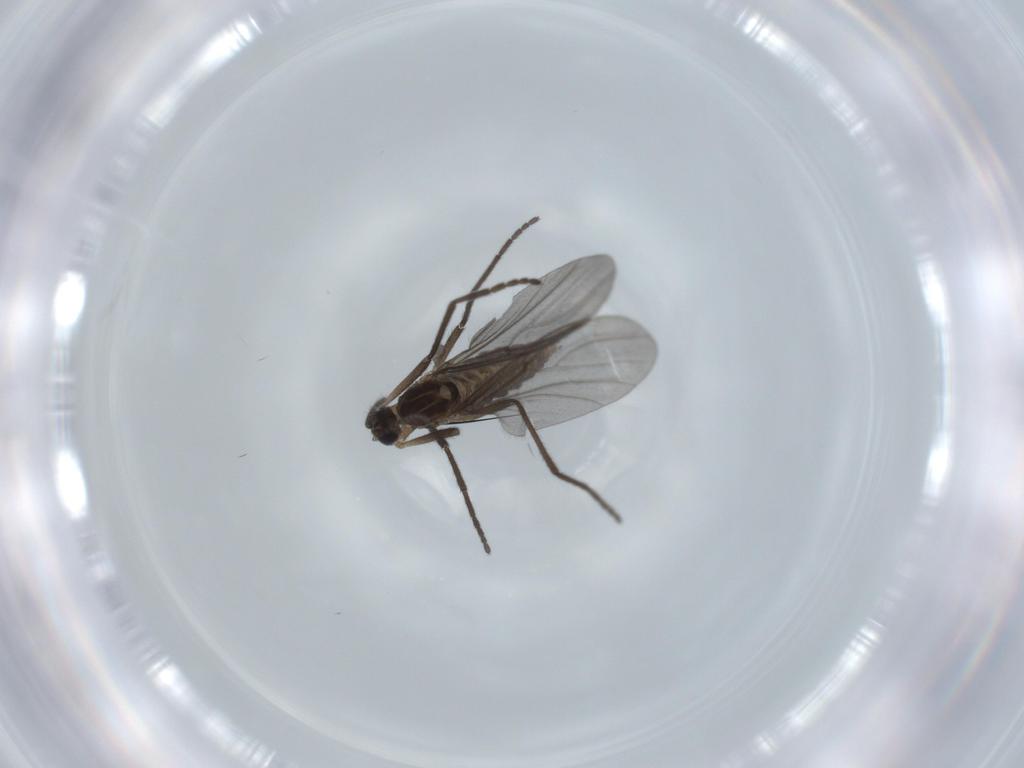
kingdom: Animalia
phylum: Arthropoda
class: Insecta
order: Diptera
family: Cecidomyiidae
